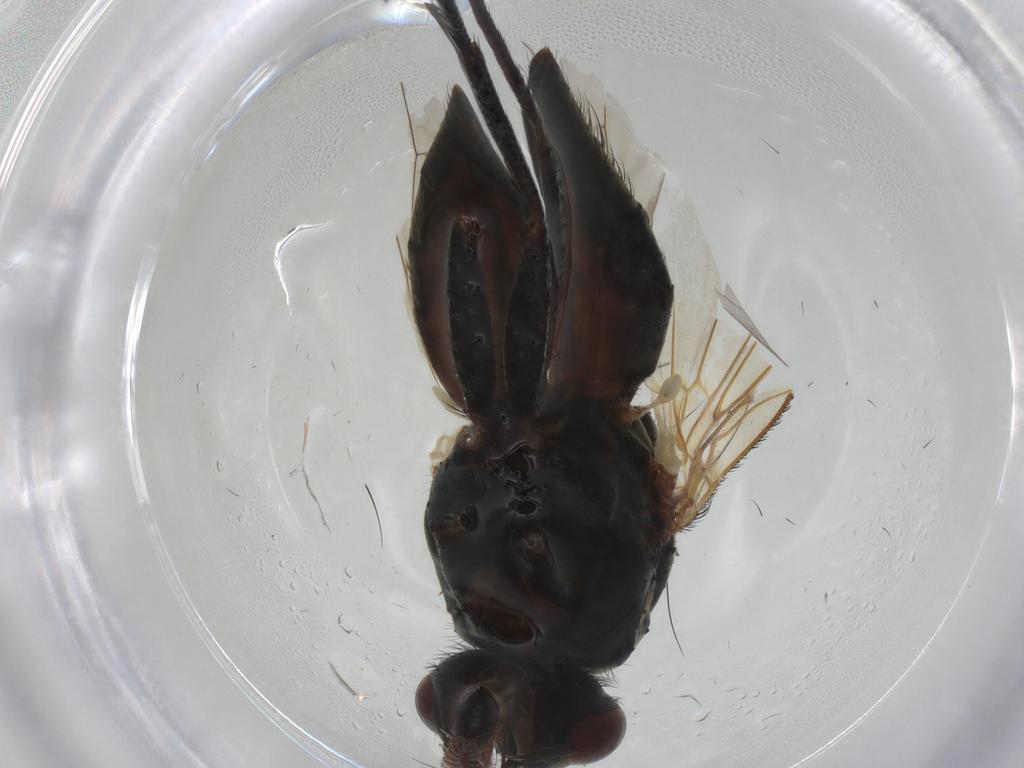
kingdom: Animalia
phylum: Arthropoda
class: Insecta
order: Diptera
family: Anthomyiidae
